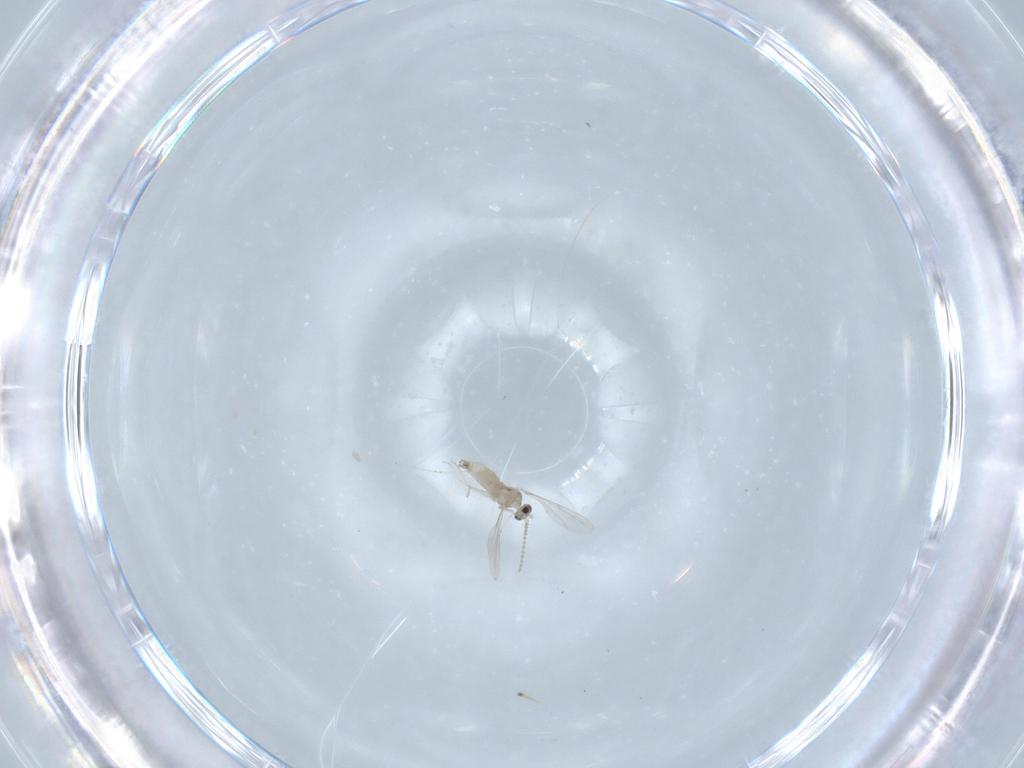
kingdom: Animalia
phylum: Arthropoda
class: Insecta
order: Diptera
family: Cecidomyiidae
